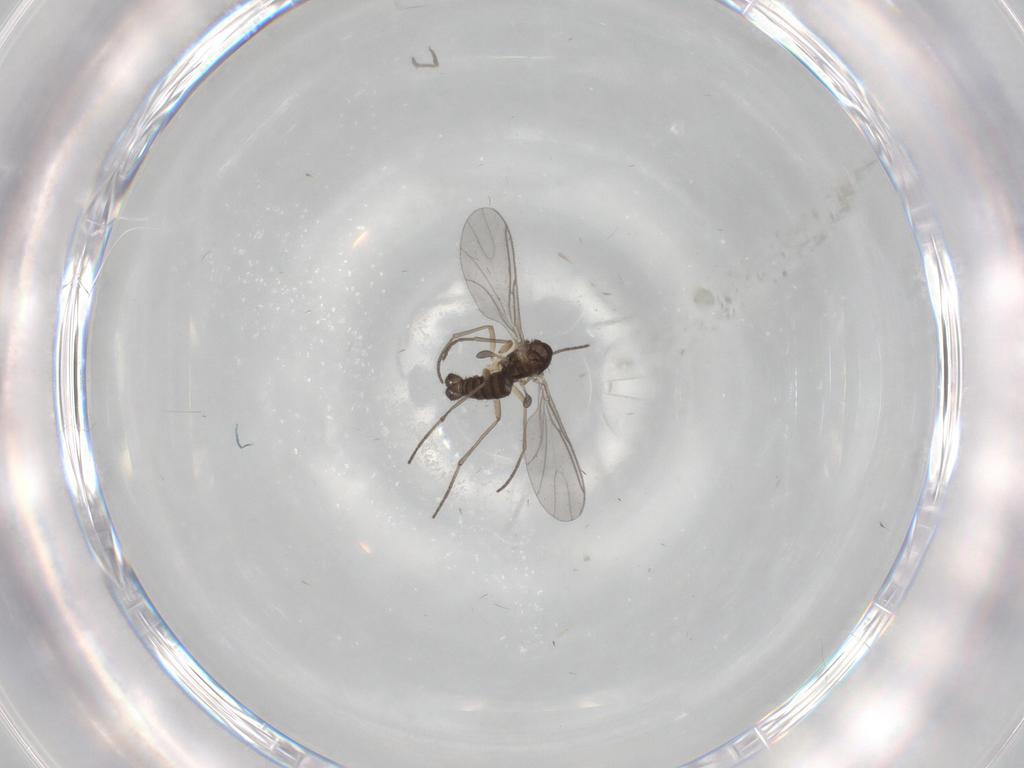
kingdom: Animalia
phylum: Arthropoda
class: Insecta
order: Diptera
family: Sciaridae
